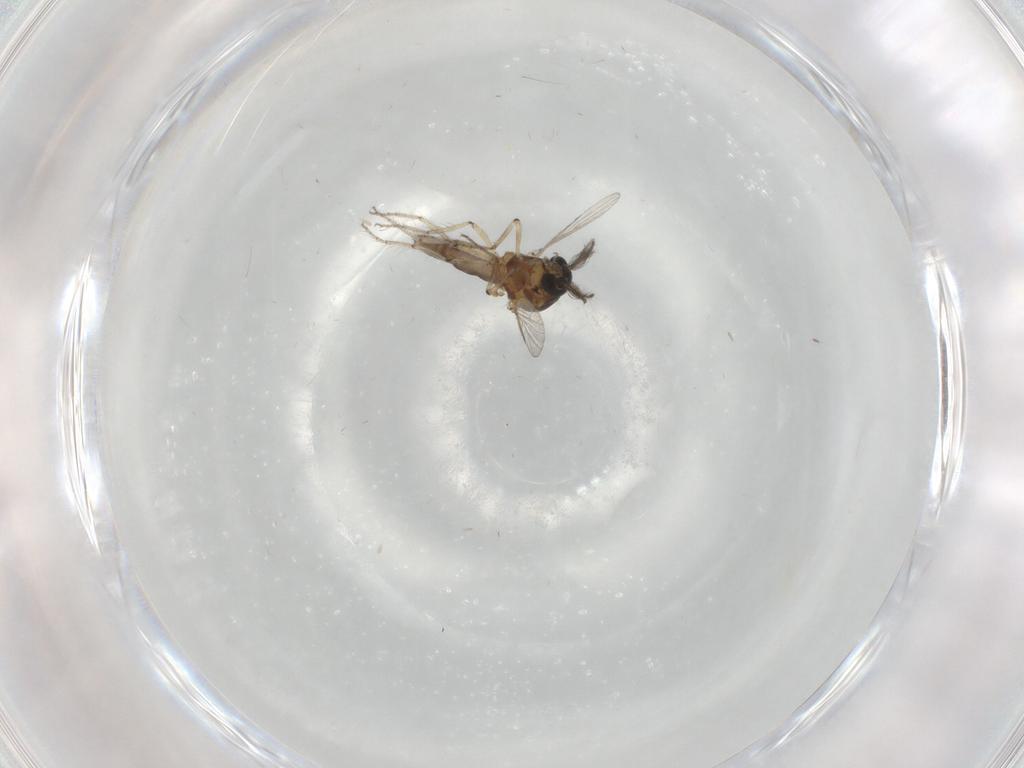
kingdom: Animalia
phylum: Arthropoda
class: Insecta
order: Diptera
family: Ceratopogonidae
